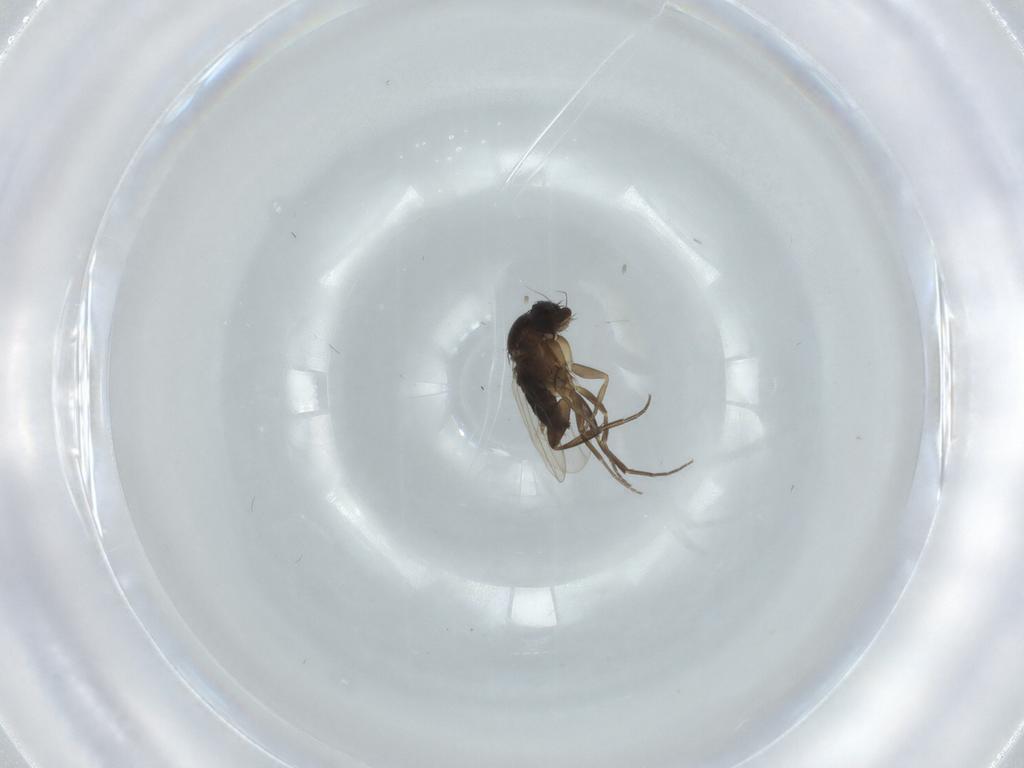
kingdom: Animalia
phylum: Arthropoda
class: Insecta
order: Diptera
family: Phoridae
